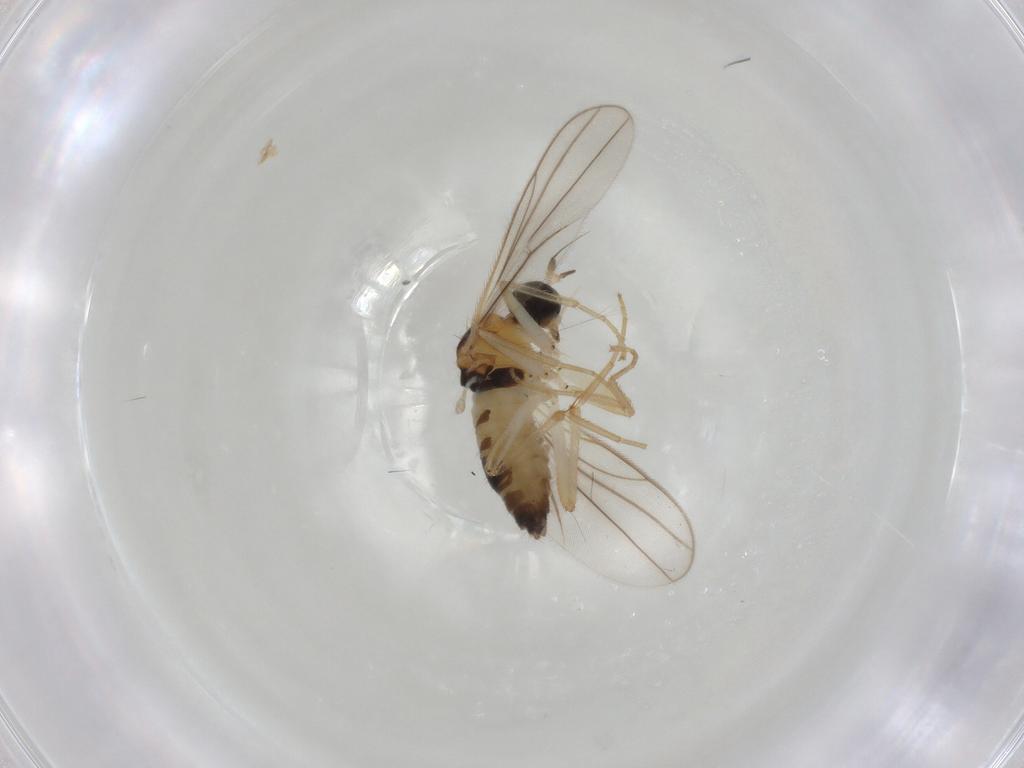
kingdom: Animalia
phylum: Arthropoda
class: Insecta
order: Diptera
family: Hybotidae
